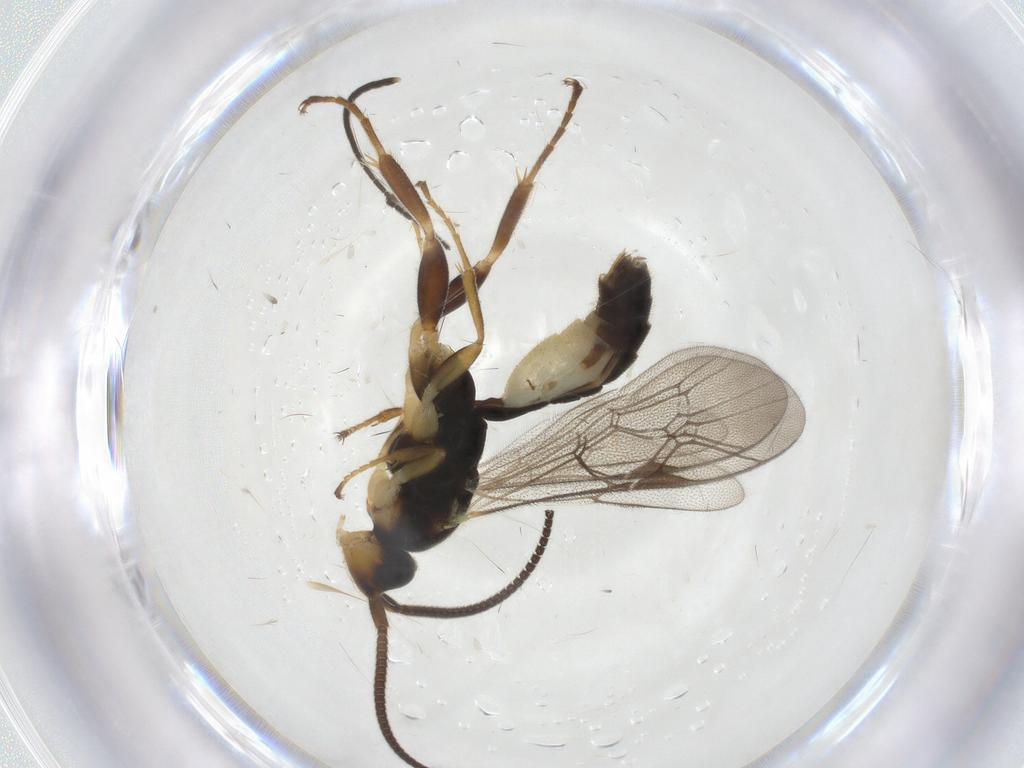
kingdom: Animalia
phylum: Arthropoda
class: Insecta
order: Hymenoptera
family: Ichneumonidae
